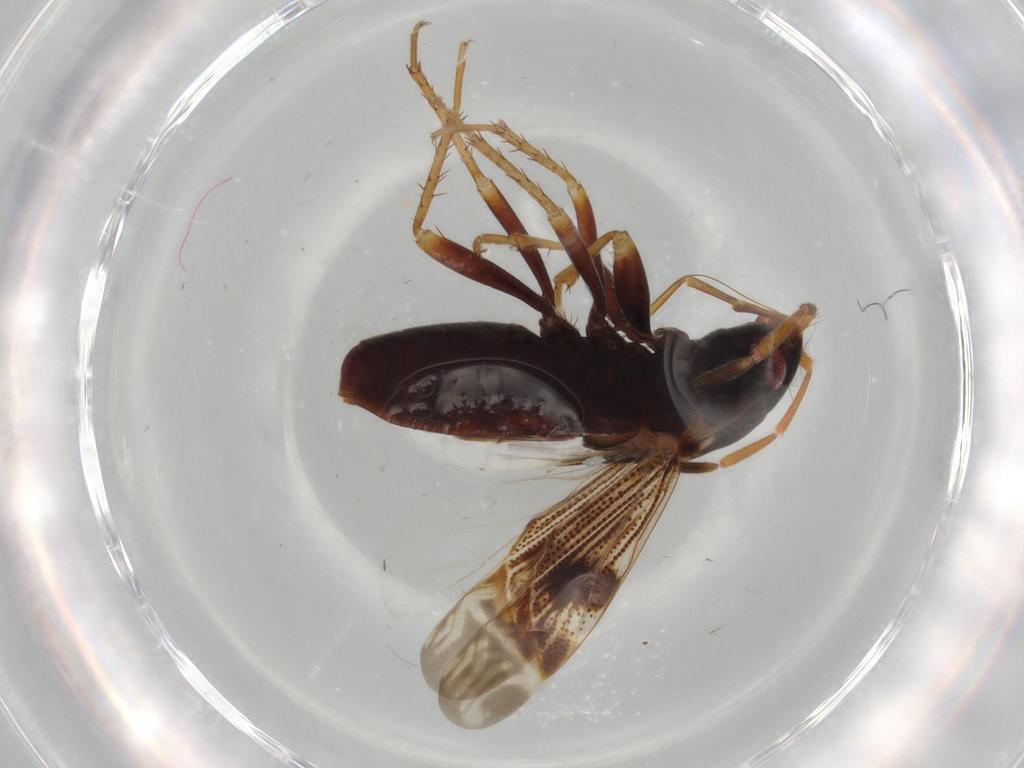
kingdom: Animalia
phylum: Arthropoda
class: Insecta
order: Hemiptera
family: Rhyparochromidae
